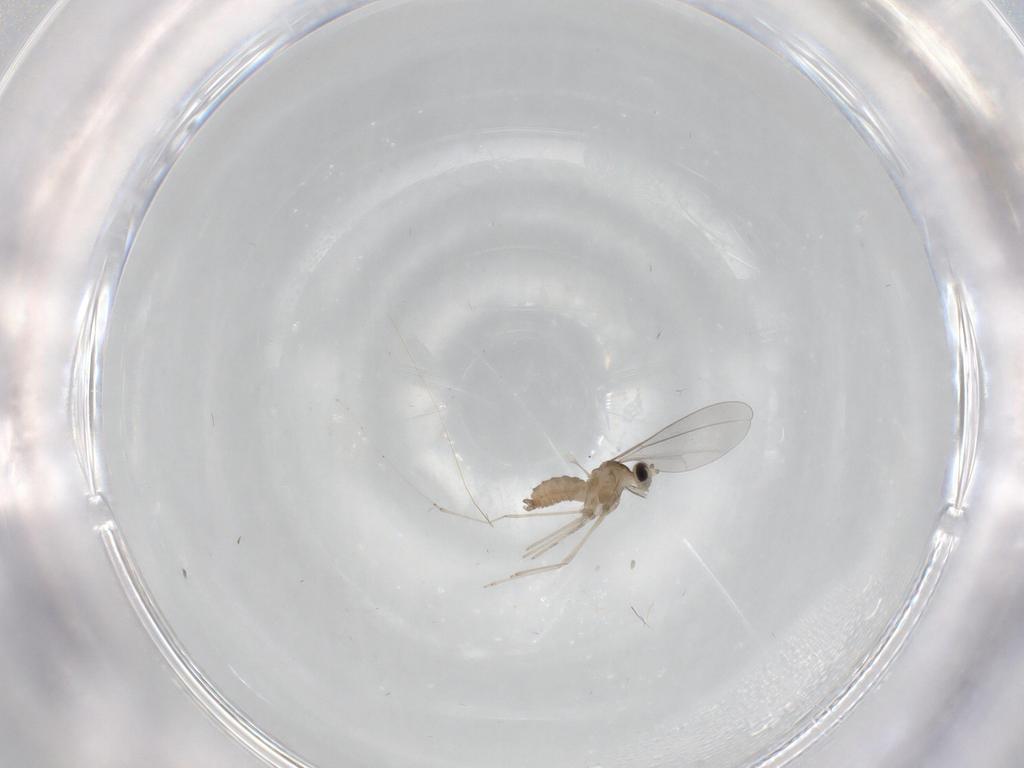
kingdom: Animalia
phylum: Arthropoda
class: Insecta
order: Diptera
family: Cecidomyiidae
